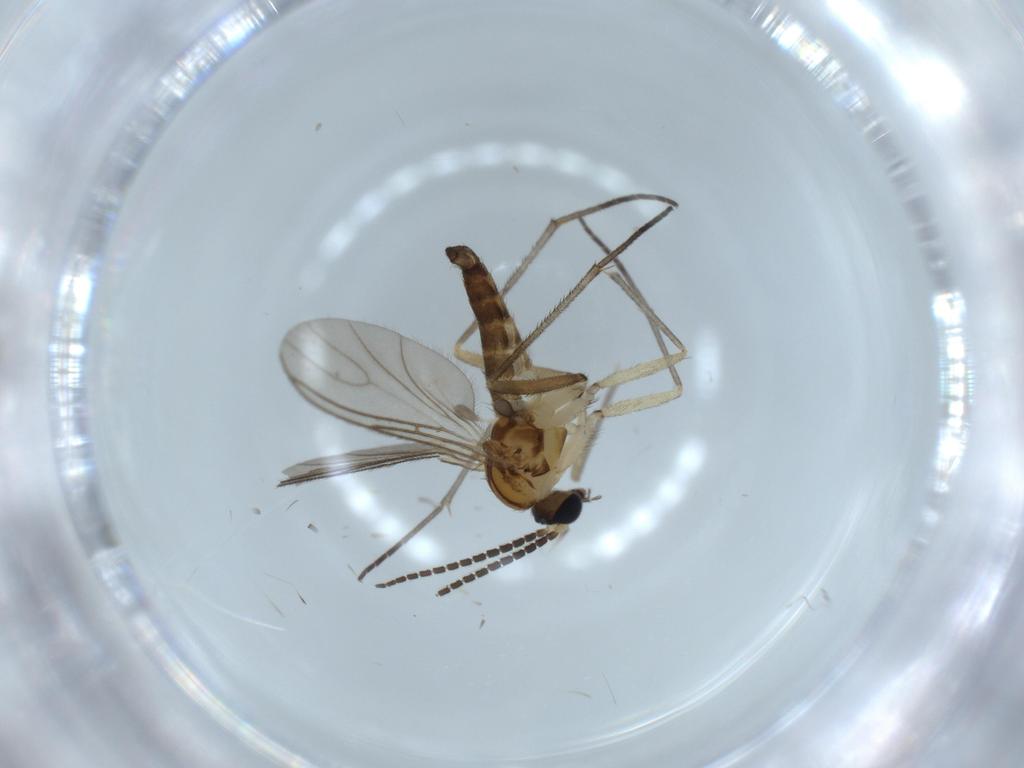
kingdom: Animalia
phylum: Arthropoda
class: Insecta
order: Diptera
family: Sciaridae
